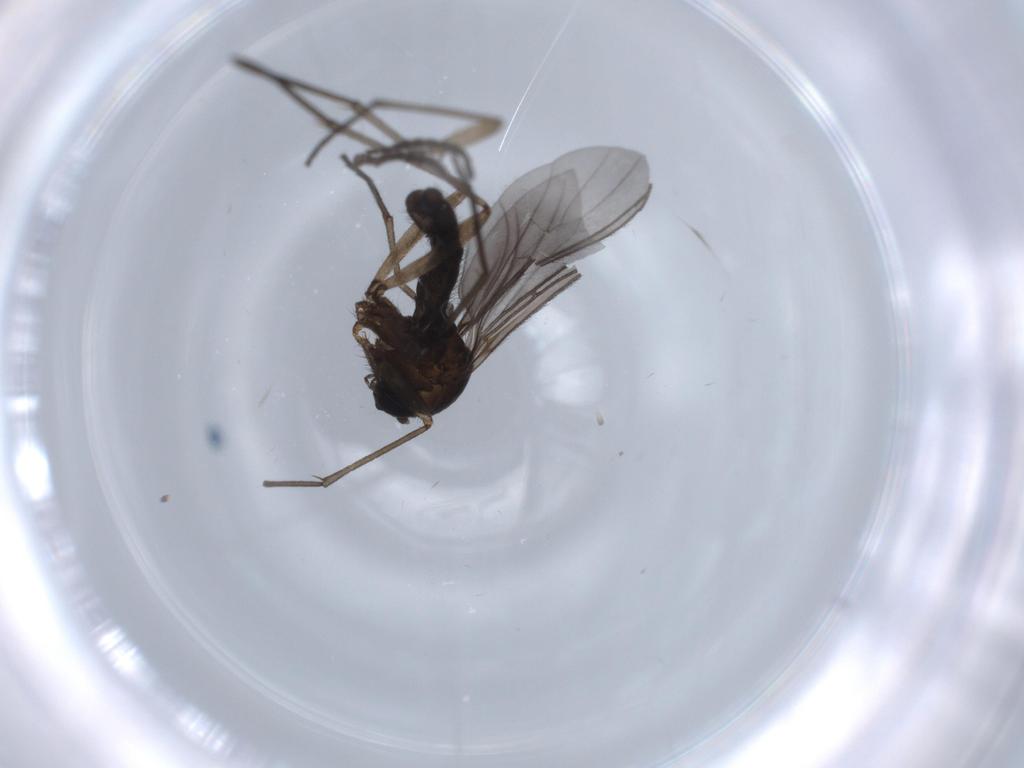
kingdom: Animalia
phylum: Arthropoda
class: Insecta
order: Diptera
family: Sciaridae
